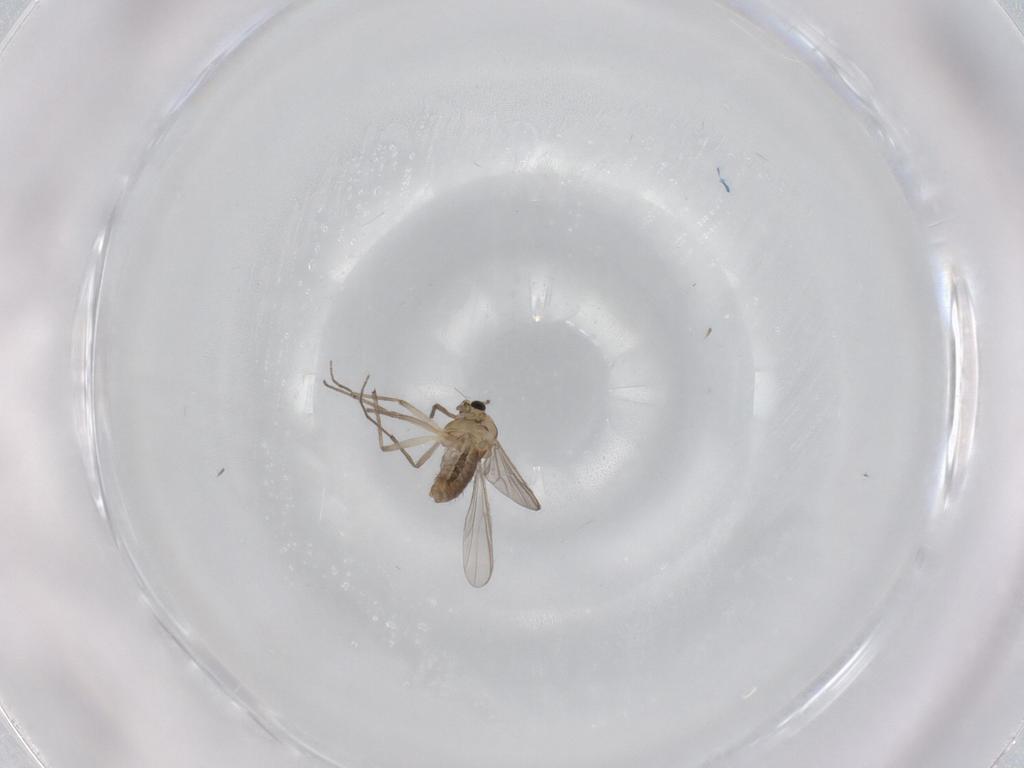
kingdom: Animalia
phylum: Arthropoda
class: Insecta
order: Diptera
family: Chironomidae
